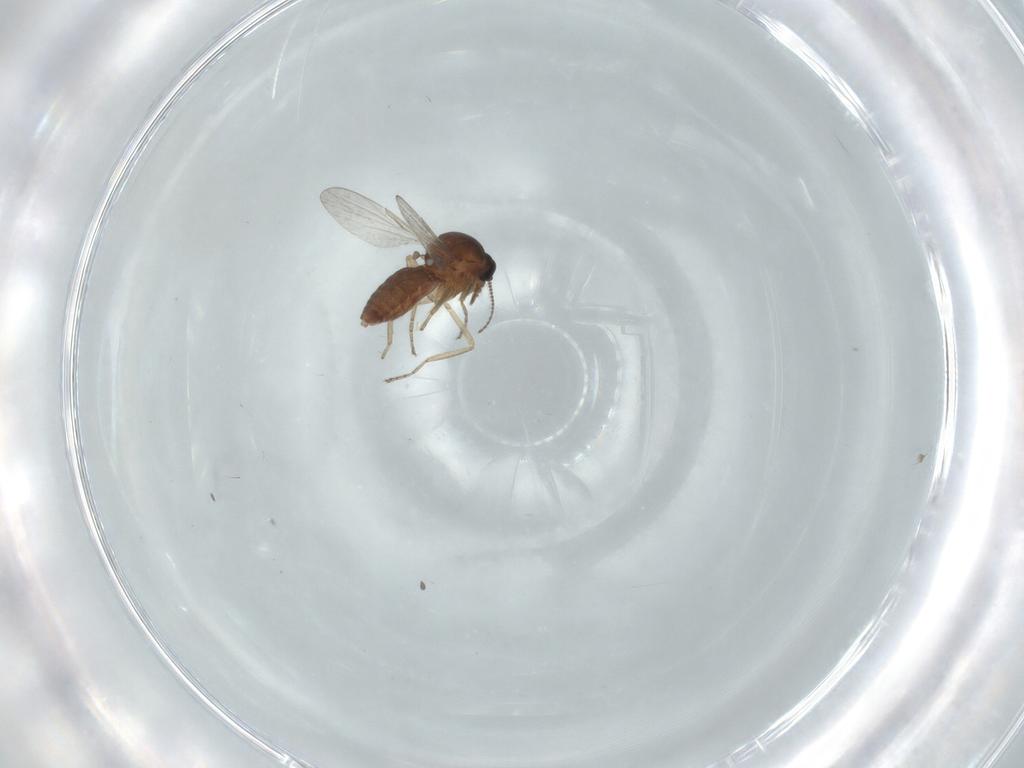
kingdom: Animalia
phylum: Arthropoda
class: Insecta
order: Diptera
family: Ceratopogonidae
